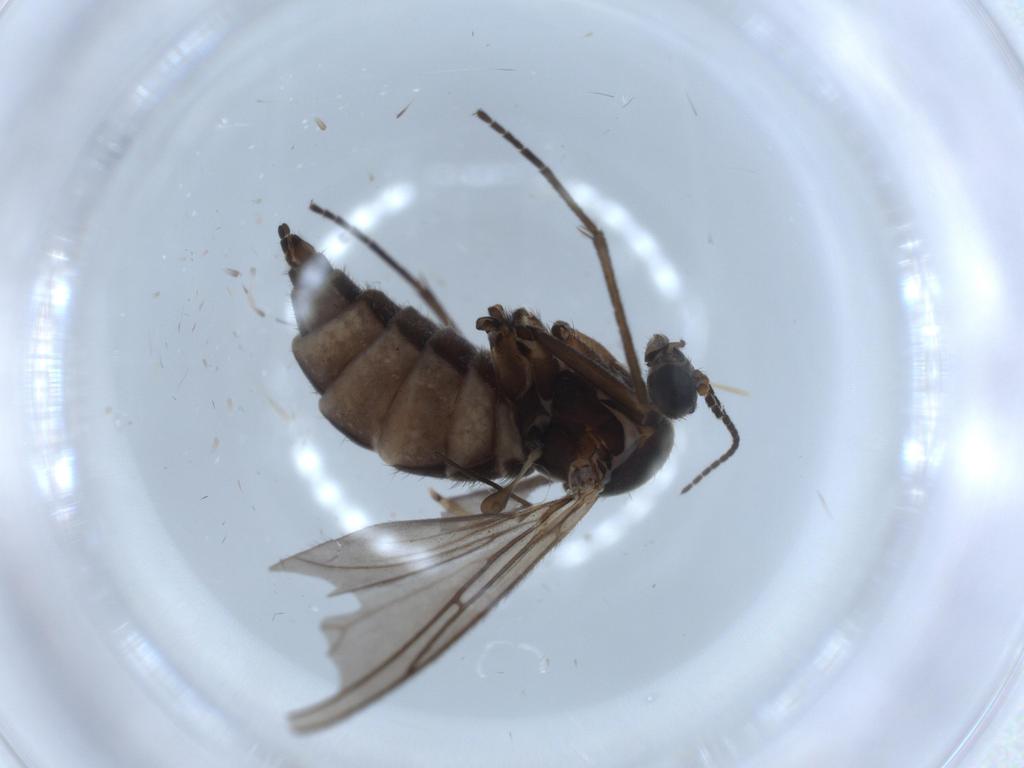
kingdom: Animalia
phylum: Arthropoda
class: Insecta
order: Diptera
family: Sciaridae
